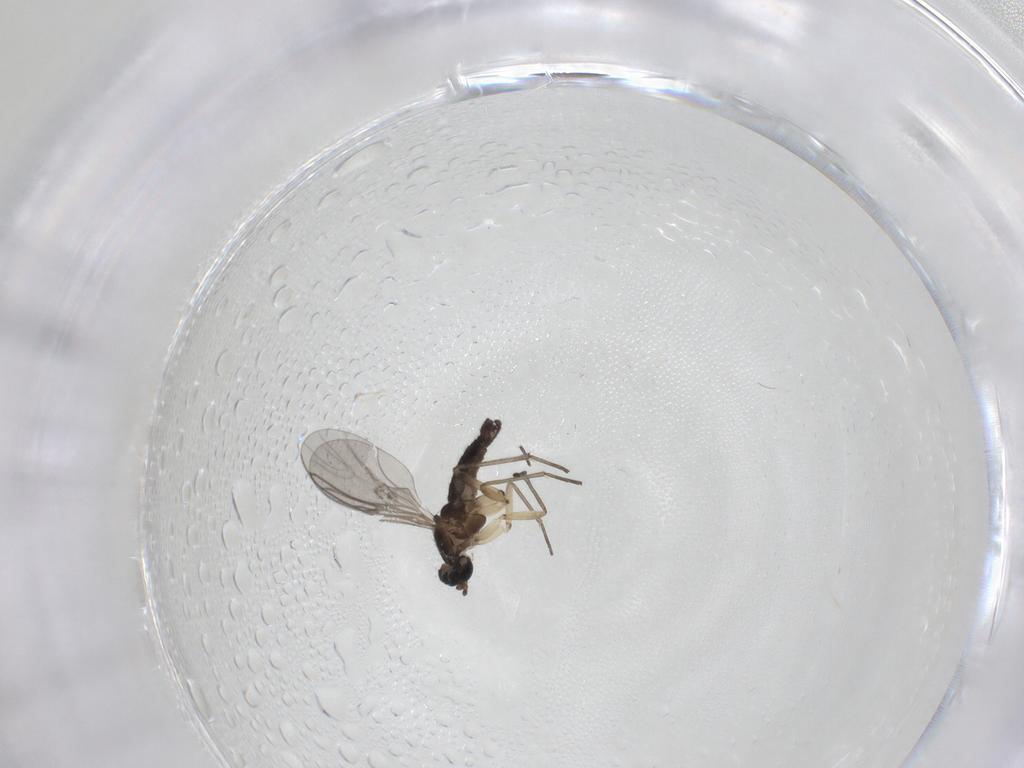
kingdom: Animalia
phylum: Arthropoda
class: Insecta
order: Diptera
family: Sciaridae
